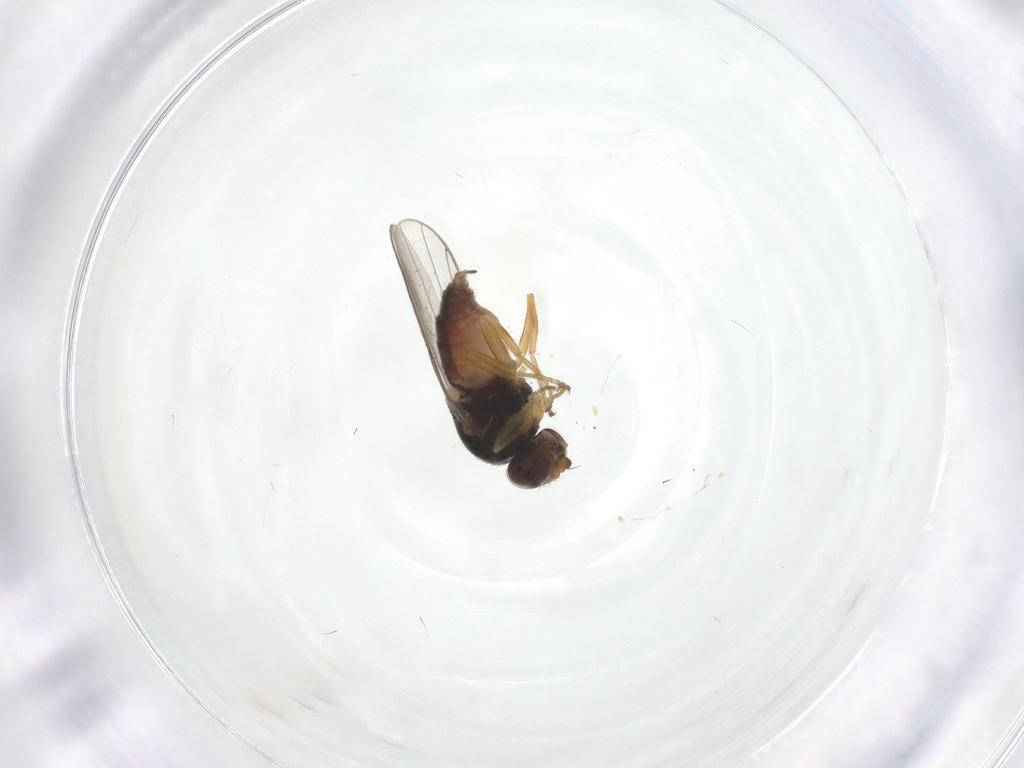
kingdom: Animalia
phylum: Arthropoda
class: Insecta
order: Diptera
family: Chloropidae
